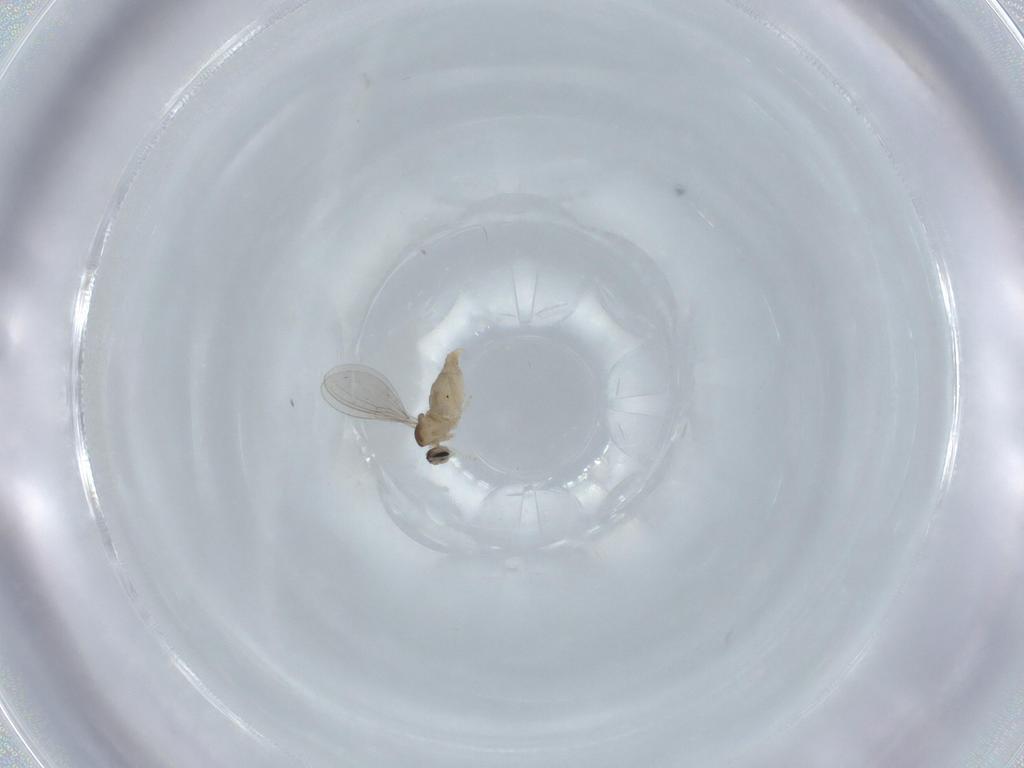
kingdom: Animalia
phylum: Arthropoda
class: Insecta
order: Diptera
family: Cecidomyiidae
